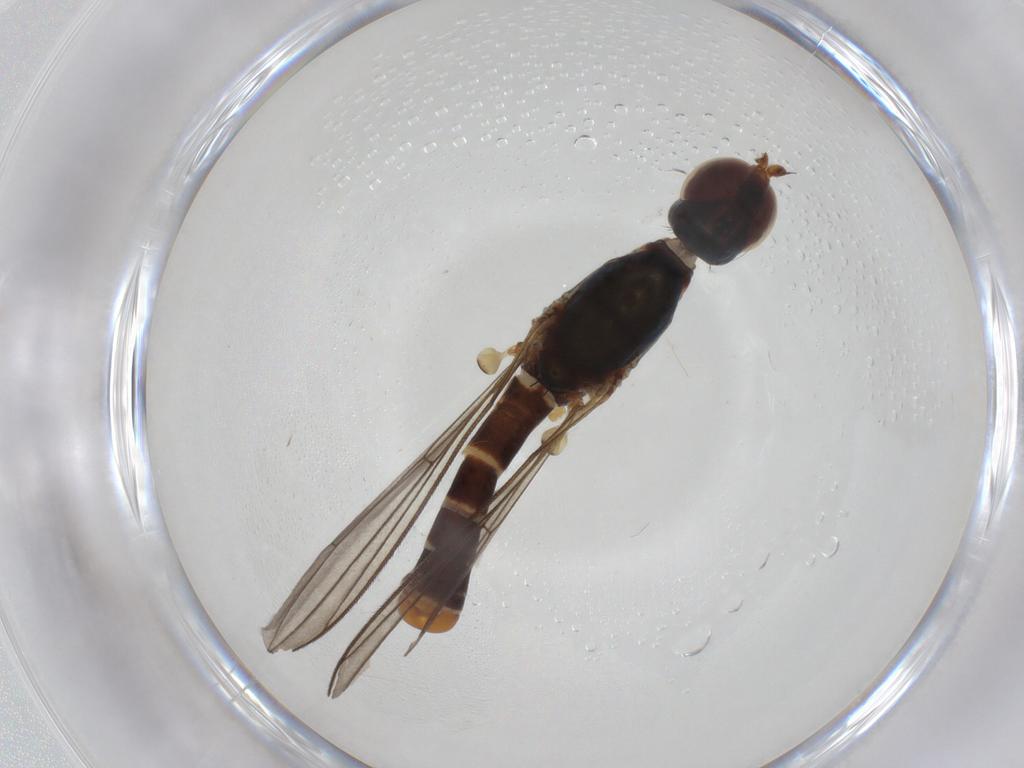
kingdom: Animalia
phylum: Arthropoda
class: Insecta
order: Diptera
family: Micropezidae
